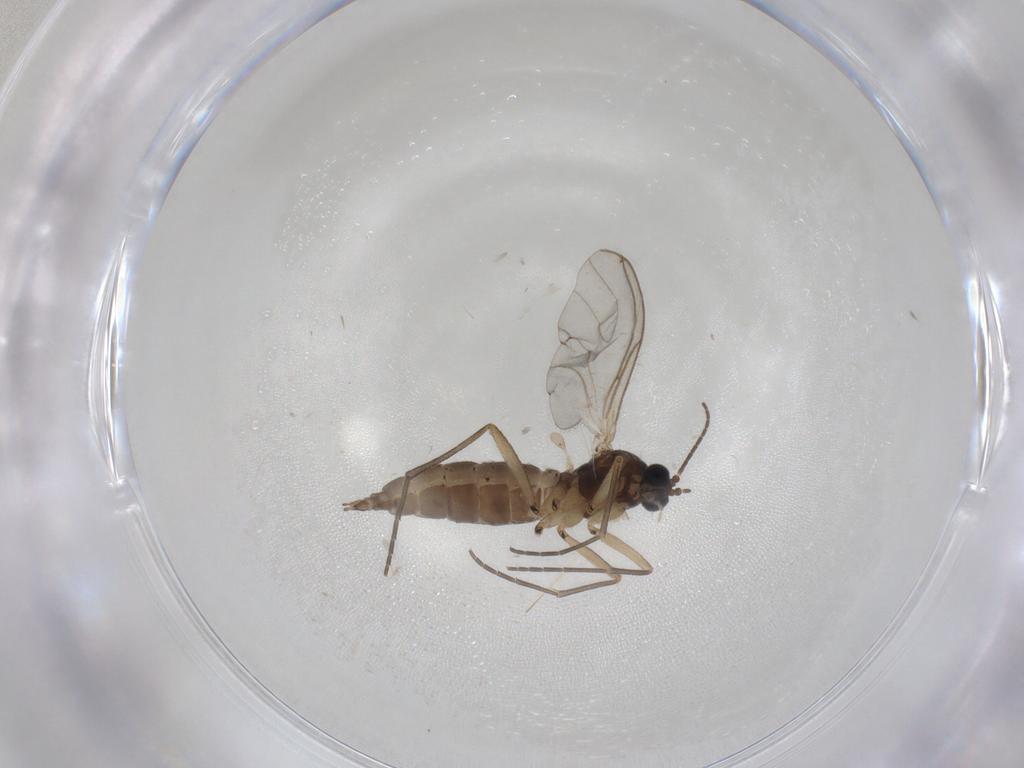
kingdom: Animalia
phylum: Arthropoda
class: Insecta
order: Diptera
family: Sciaridae
